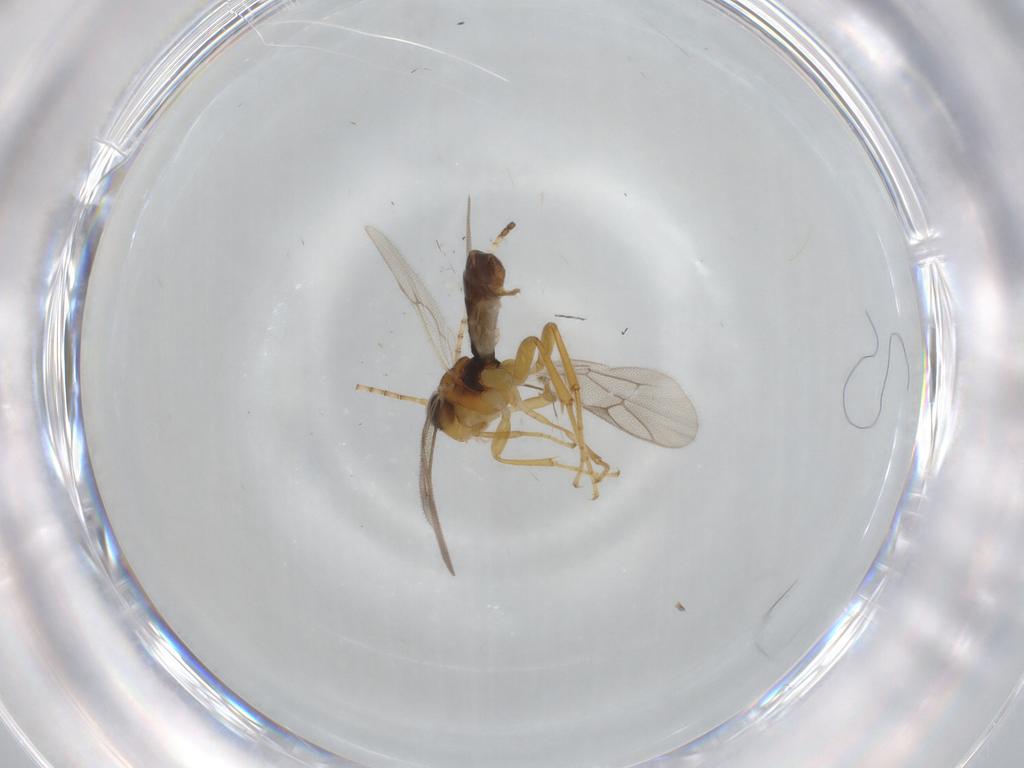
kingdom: Animalia
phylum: Arthropoda
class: Insecta
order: Hymenoptera
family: Ichneumonidae
